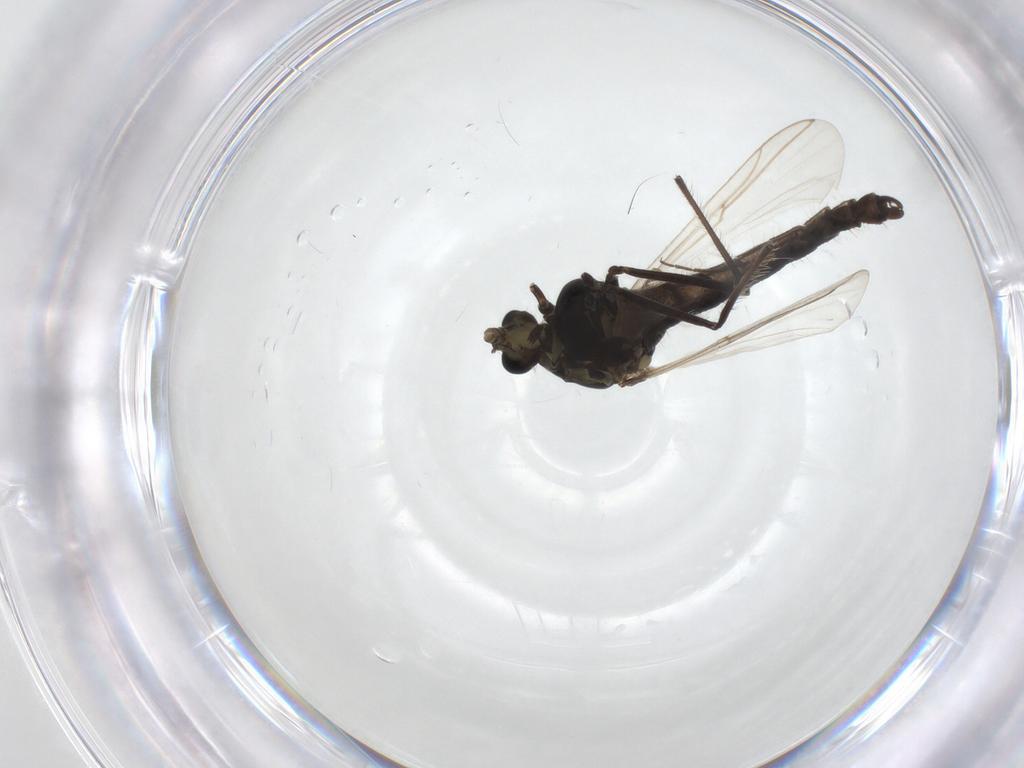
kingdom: Animalia
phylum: Arthropoda
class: Insecta
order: Diptera
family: Chironomidae
